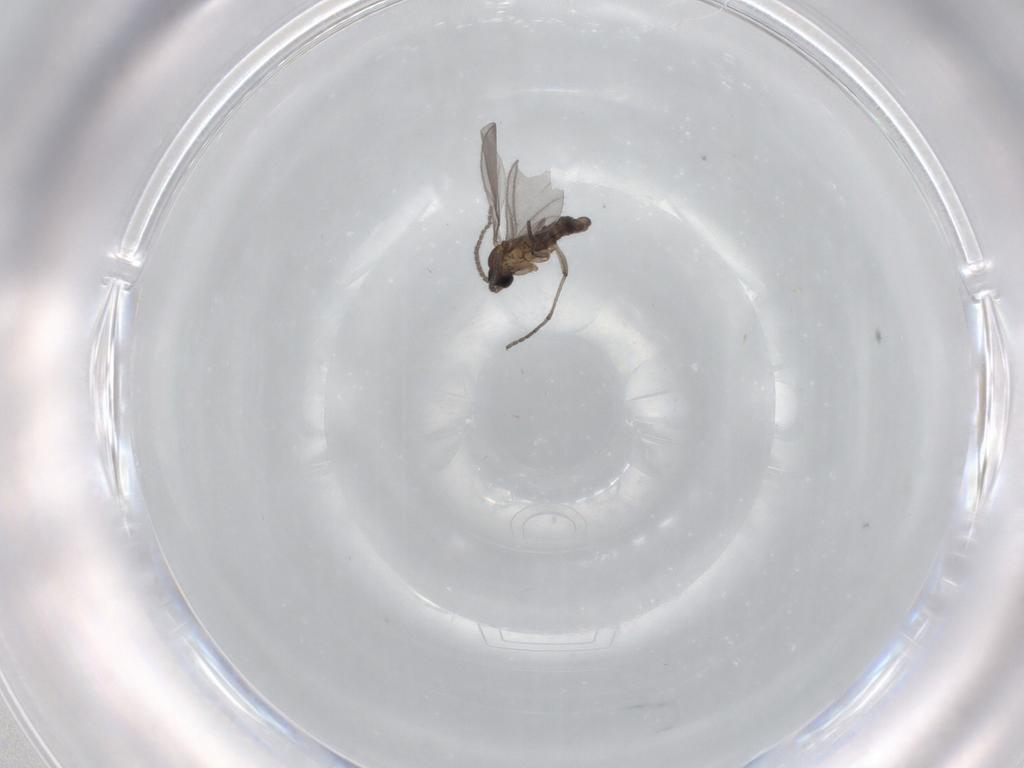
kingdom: Animalia
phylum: Arthropoda
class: Insecta
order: Diptera
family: Sciaridae
